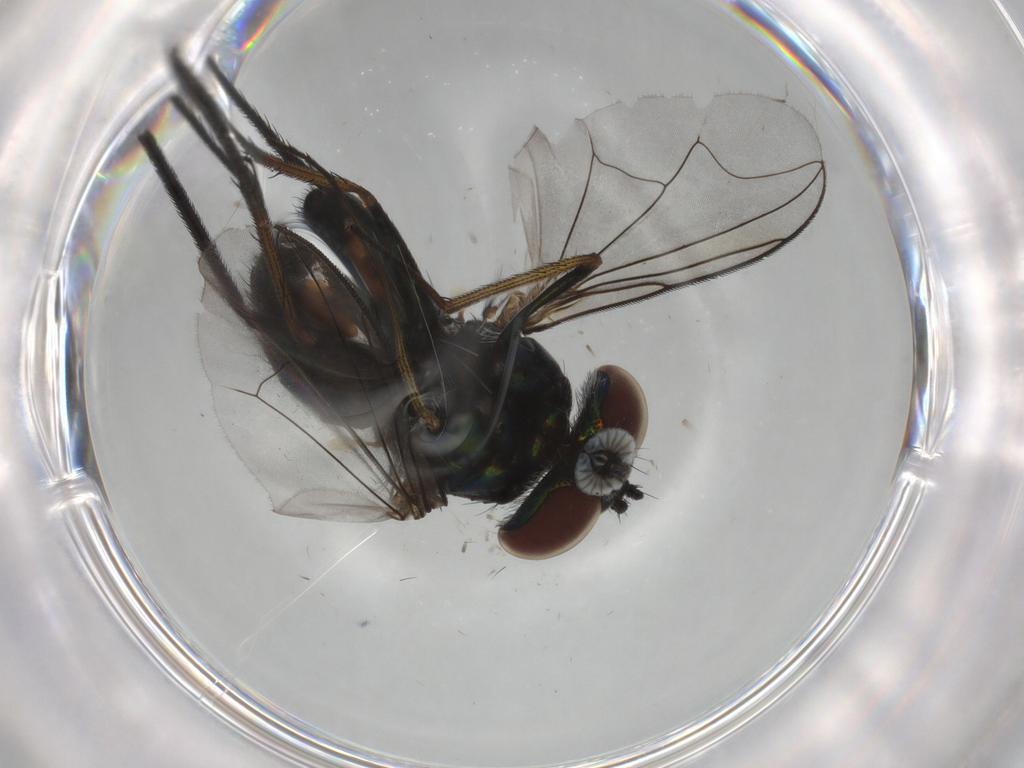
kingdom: Animalia
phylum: Arthropoda
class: Insecta
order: Diptera
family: Dolichopodidae
